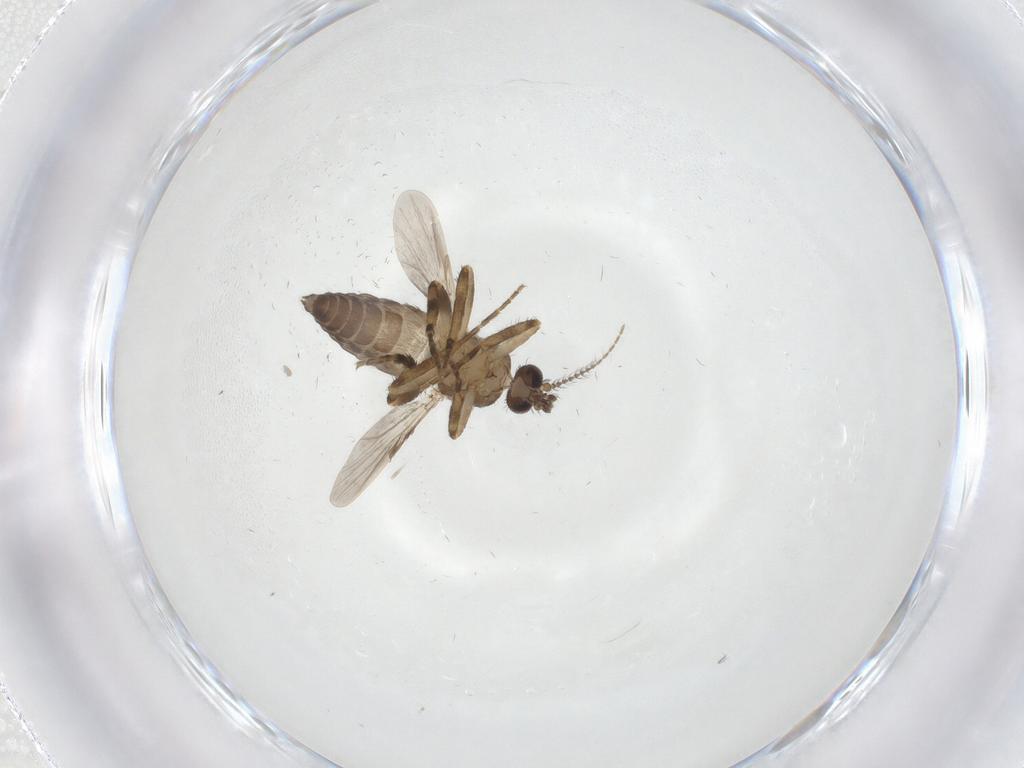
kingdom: Animalia
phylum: Arthropoda
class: Insecta
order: Diptera
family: Ceratopogonidae
